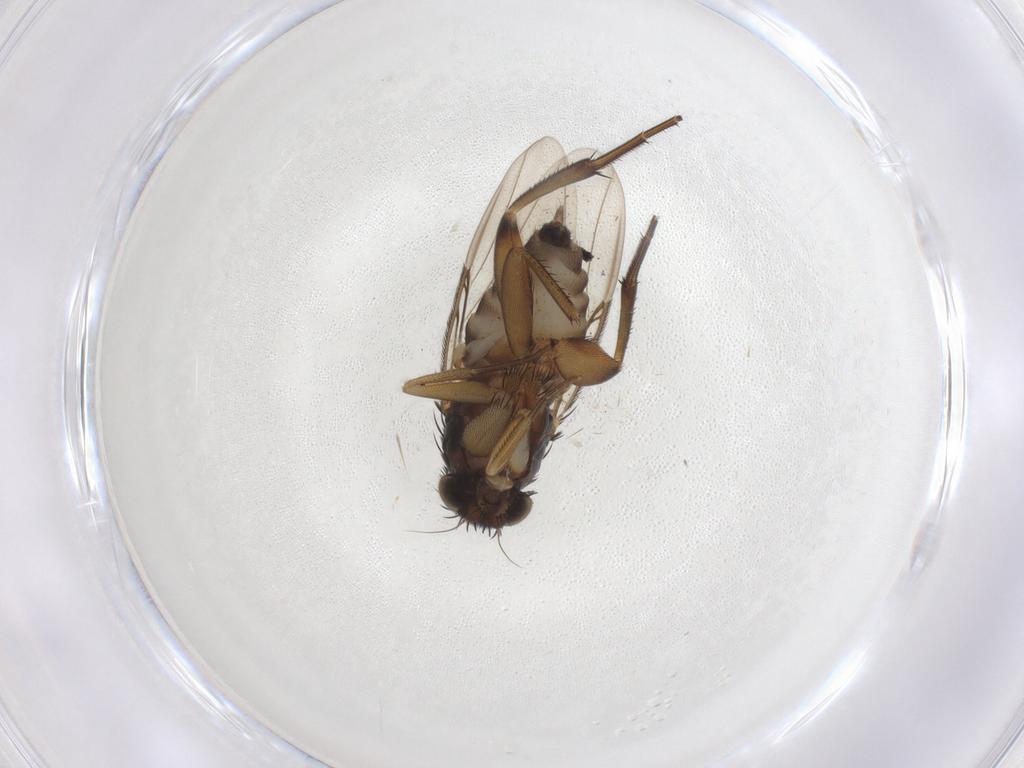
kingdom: Animalia
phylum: Arthropoda
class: Insecta
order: Diptera
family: Phoridae
